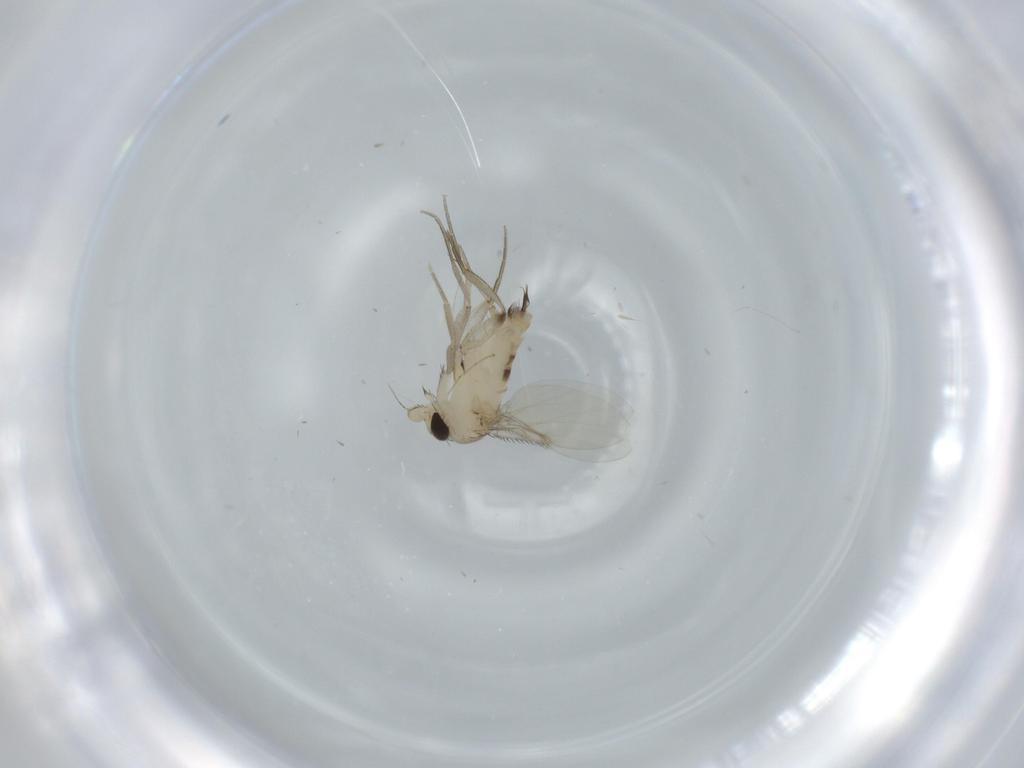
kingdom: Animalia
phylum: Arthropoda
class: Insecta
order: Diptera
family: Phoridae
